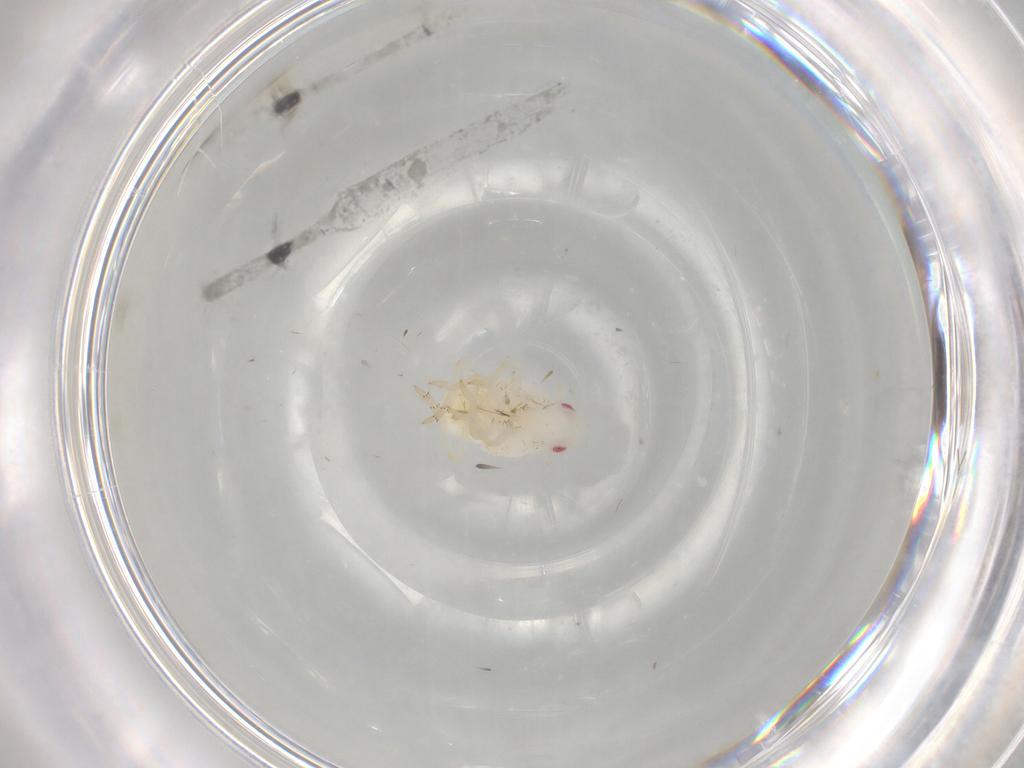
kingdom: Animalia
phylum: Arthropoda
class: Insecta
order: Hemiptera
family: Flatidae
